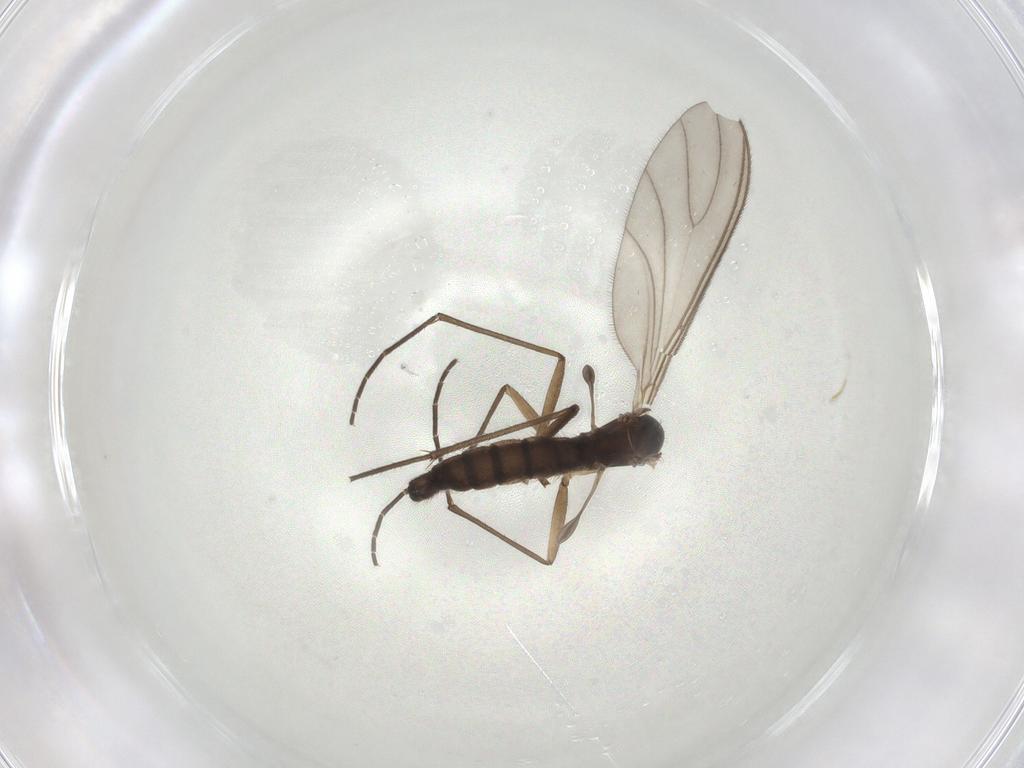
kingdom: Animalia
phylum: Arthropoda
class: Insecta
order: Diptera
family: Sciaridae
